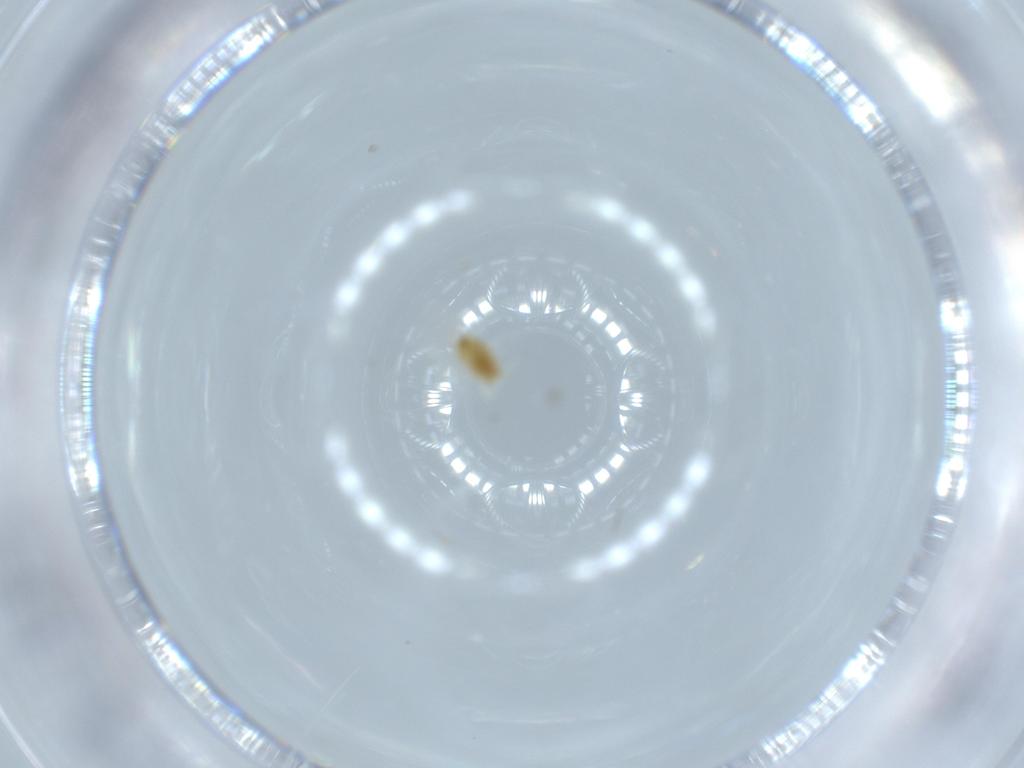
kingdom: Animalia
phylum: Arthropoda
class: Insecta
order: Hemiptera
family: Aleyrodidae
